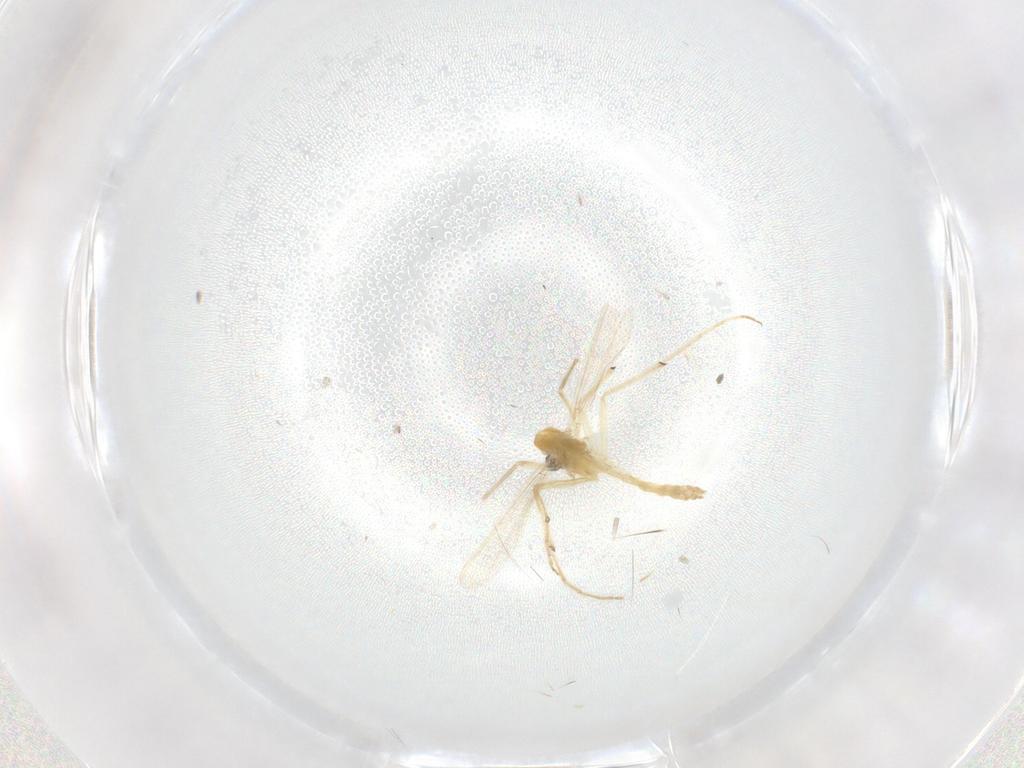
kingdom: Animalia
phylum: Arthropoda
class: Insecta
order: Diptera
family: Chironomidae
